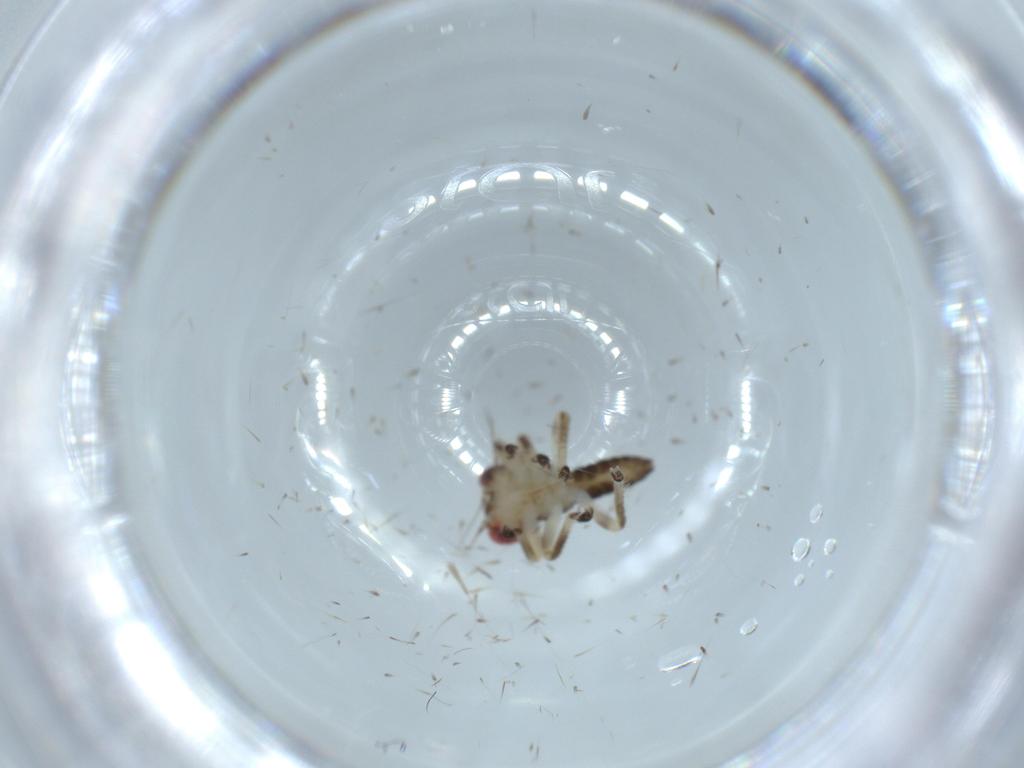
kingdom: Animalia
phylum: Arthropoda
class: Insecta
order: Hemiptera
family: Cicadellidae
